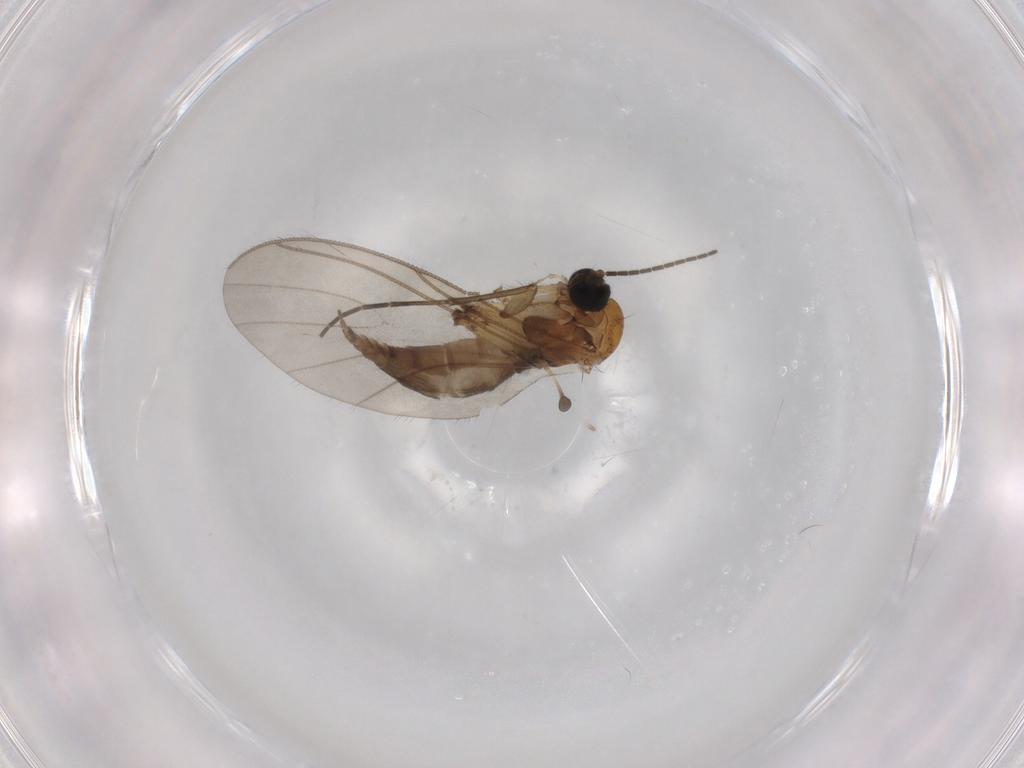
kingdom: Animalia
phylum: Arthropoda
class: Insecta
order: Diptera
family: Sciaridae
